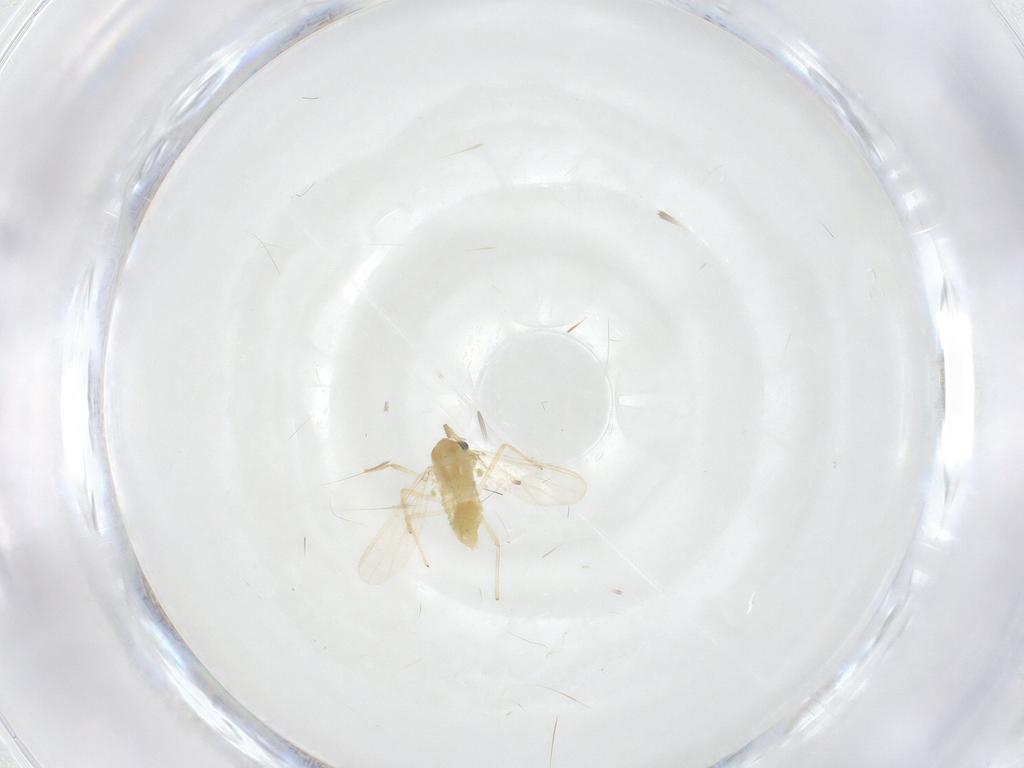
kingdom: Animalia
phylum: Arthropoda
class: Insecta
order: Diptera
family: Chironomidae
